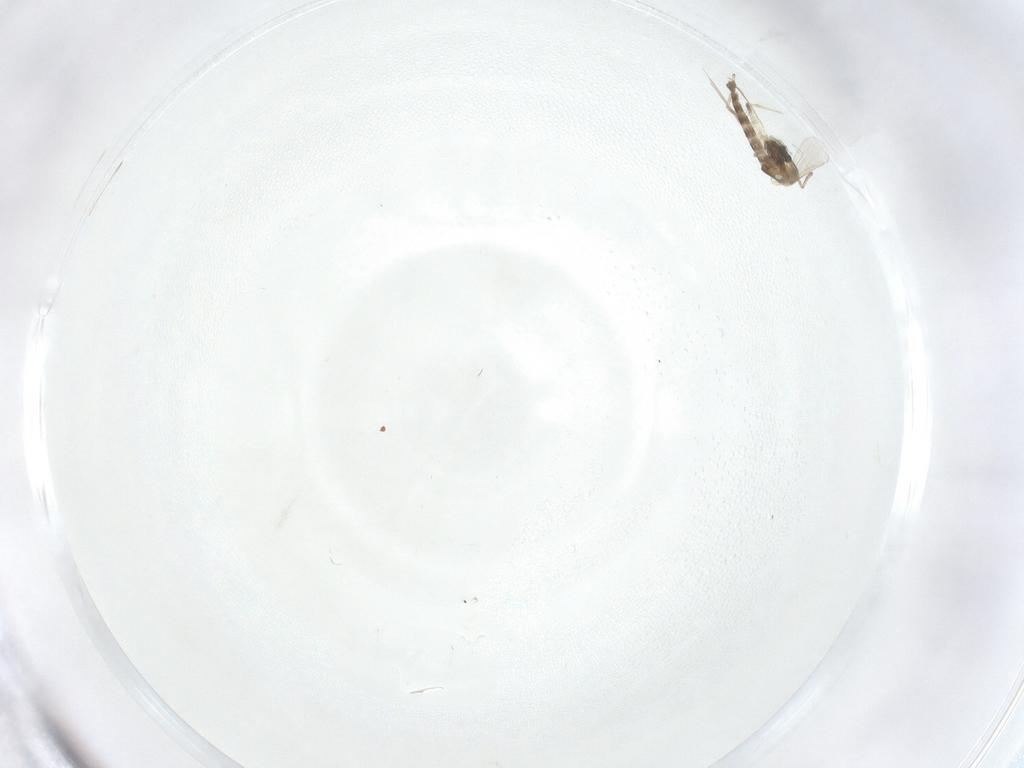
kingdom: Animalia
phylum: Arthropoda
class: Insecta
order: Diptera
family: Chironomidae
